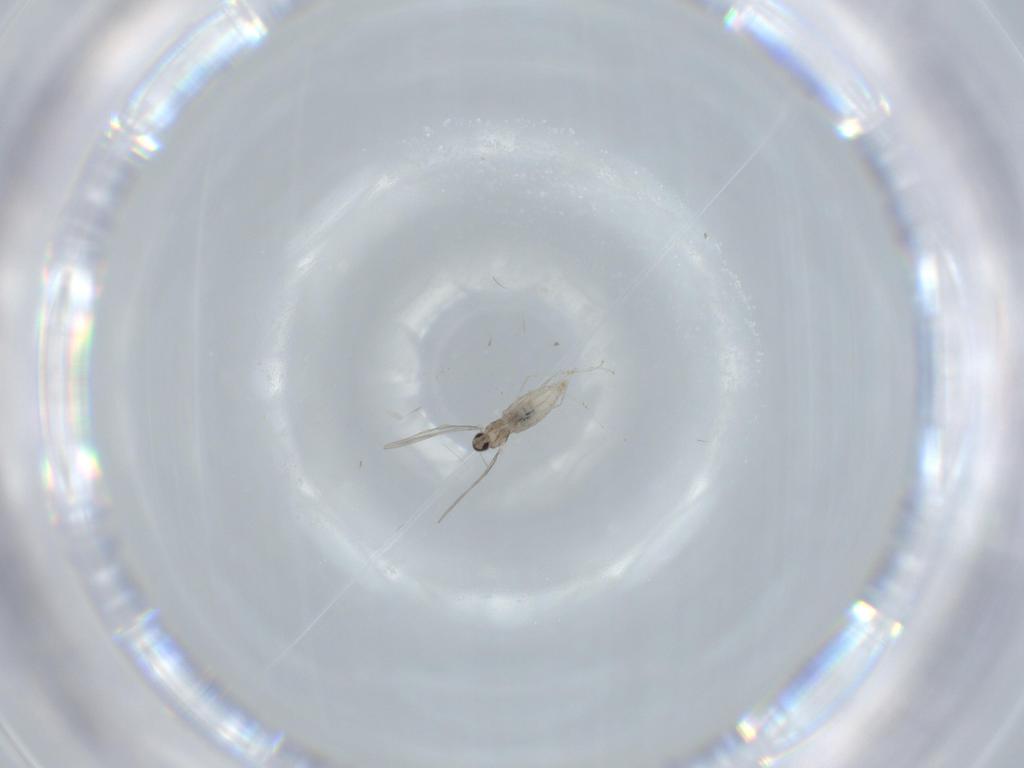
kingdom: Animalia
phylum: Arthropoda
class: Insecta
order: Diptera
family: Cecidomyiidae
